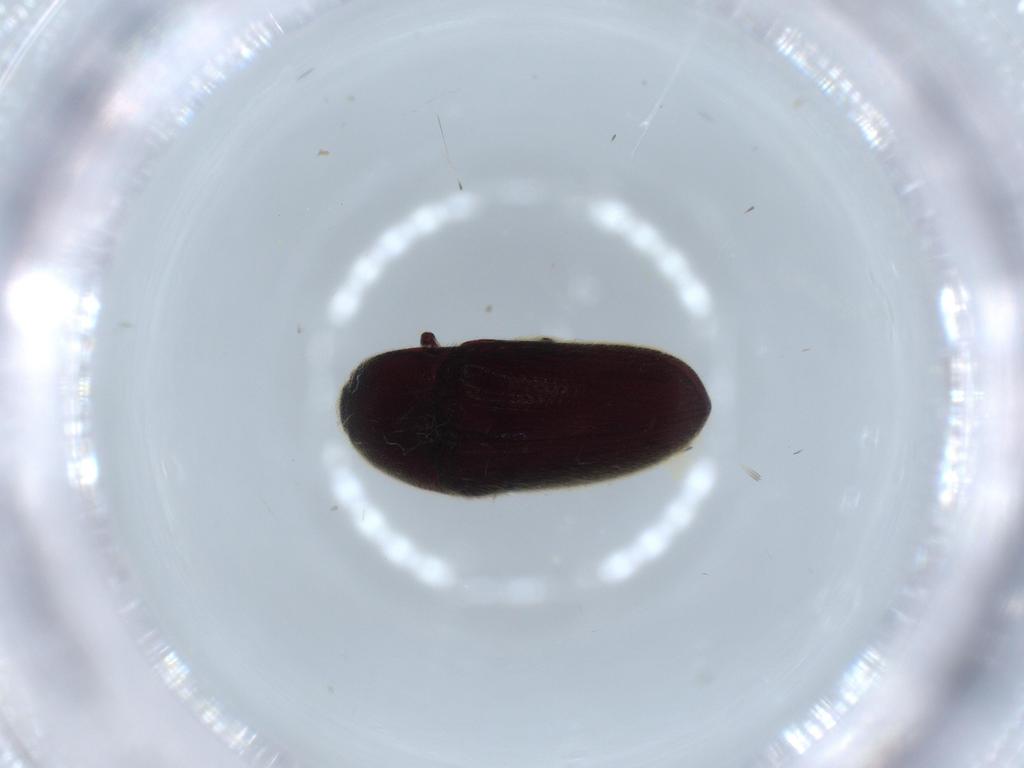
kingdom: Animalia
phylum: Arthropoda
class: Insecta
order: Coleoptera
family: Throscidae
